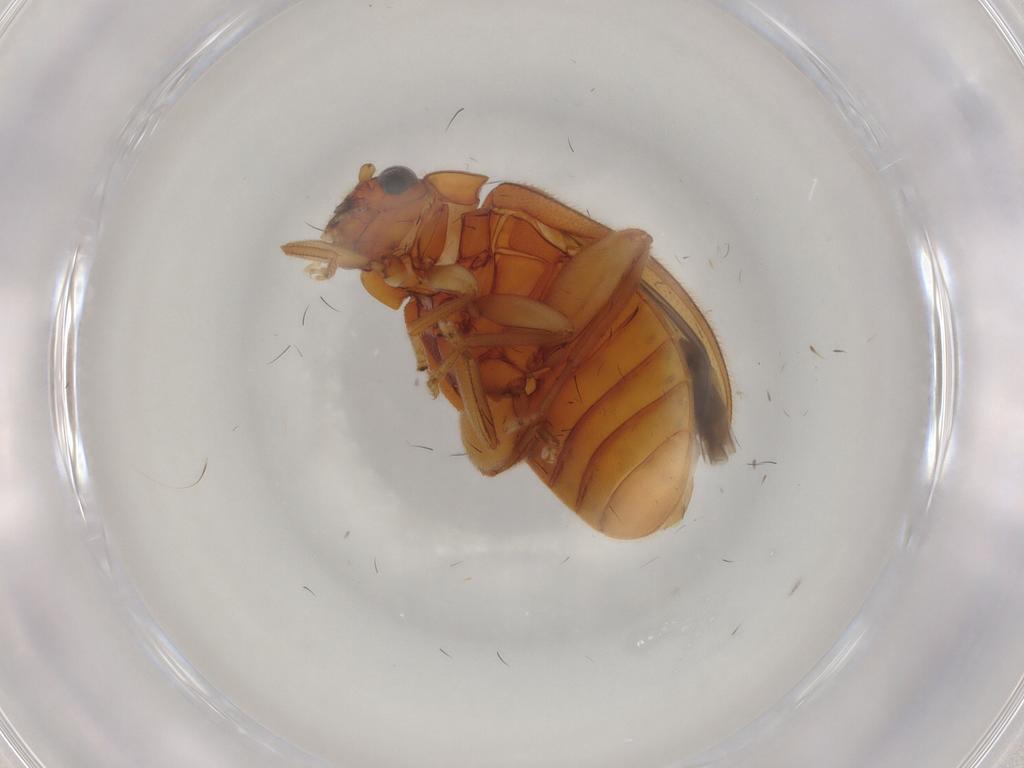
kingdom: Animalia
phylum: Arthropoda
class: Insecta
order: Coleoptera
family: Scirtidae
